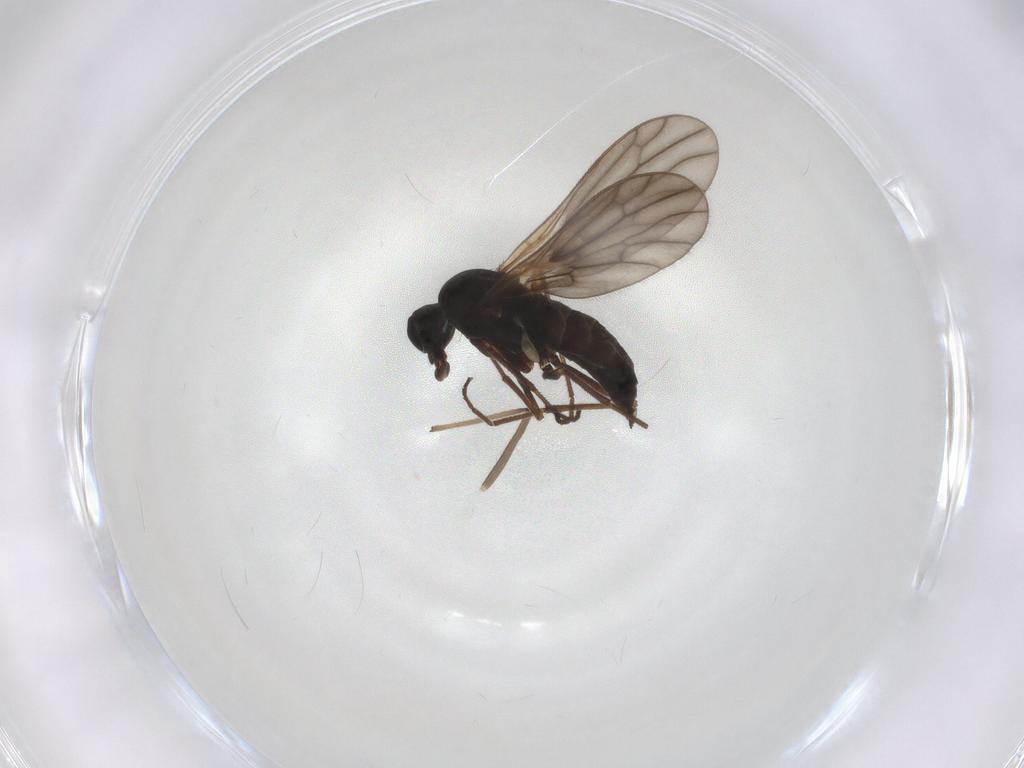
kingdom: Animalia
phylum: Arthropoda
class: Insecta
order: Diptera
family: Empididae
